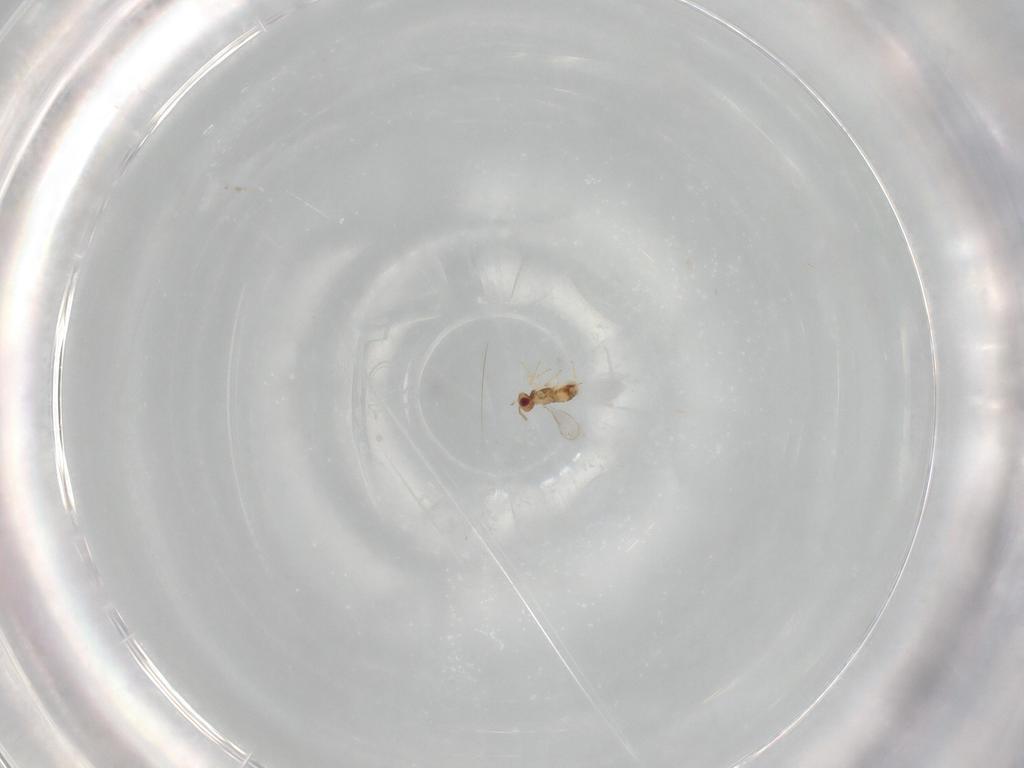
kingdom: Animalia
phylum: Arthropoda
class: Insecta
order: Hymenoptera
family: Aphelinidae
